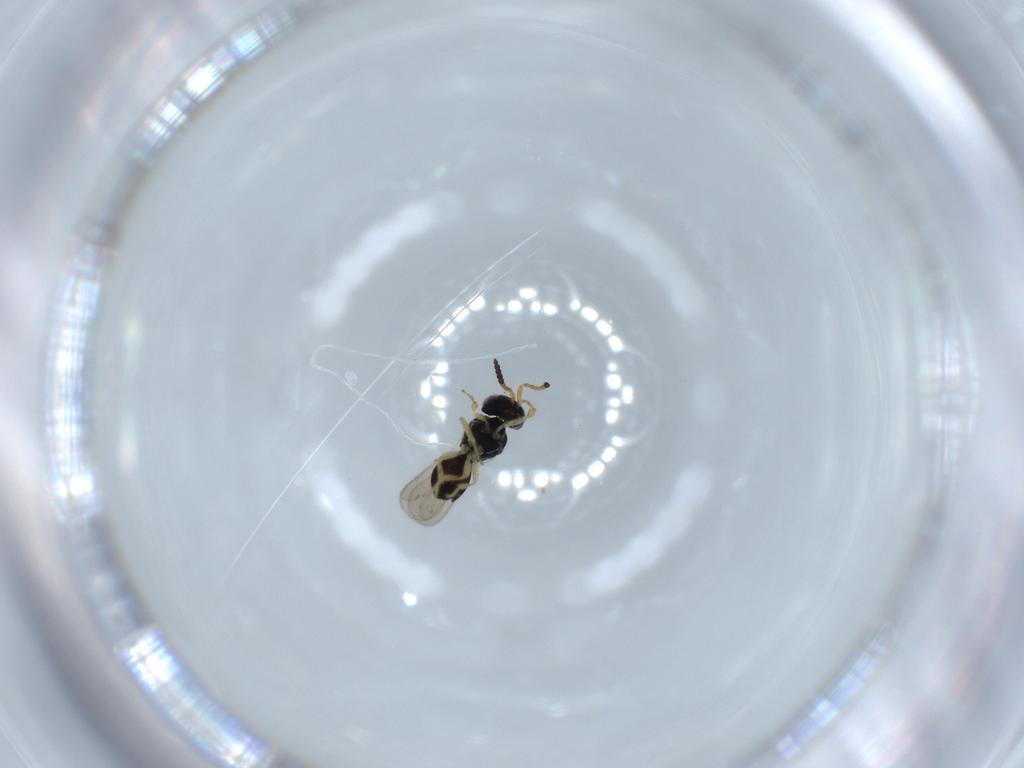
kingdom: Animalia
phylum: Arthropoda
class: Insecta
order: Hymenoptera
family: Scelionidae
